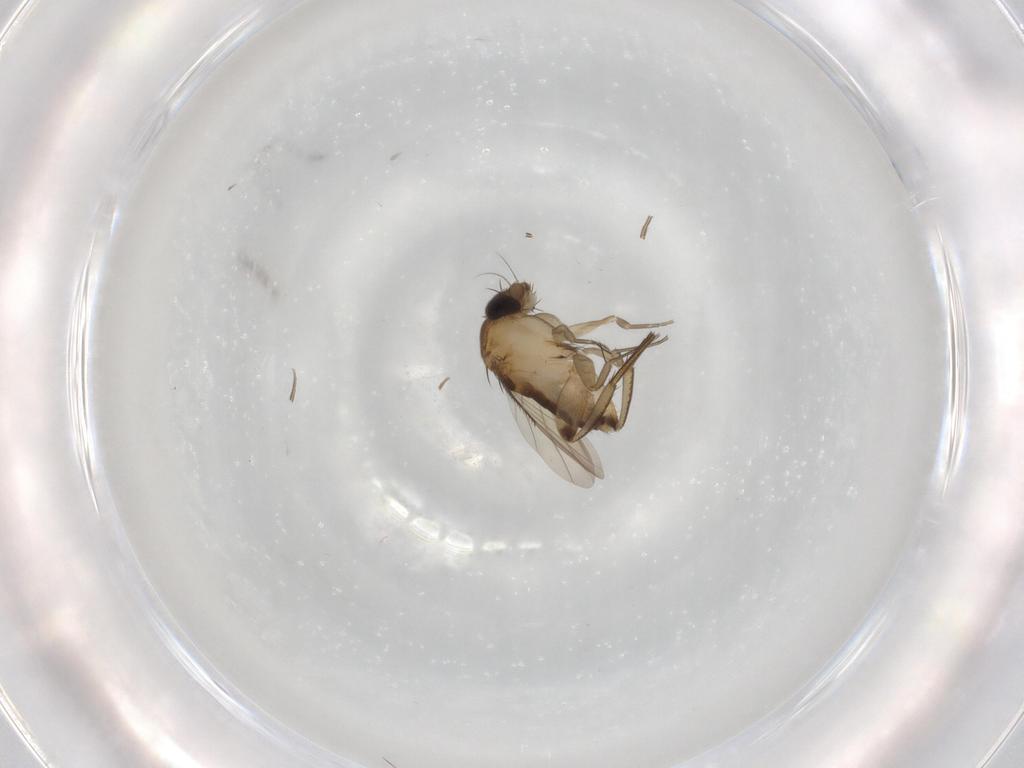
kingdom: Animalia
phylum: Arthropoda
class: Insecta
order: Diptera
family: Phoridae
